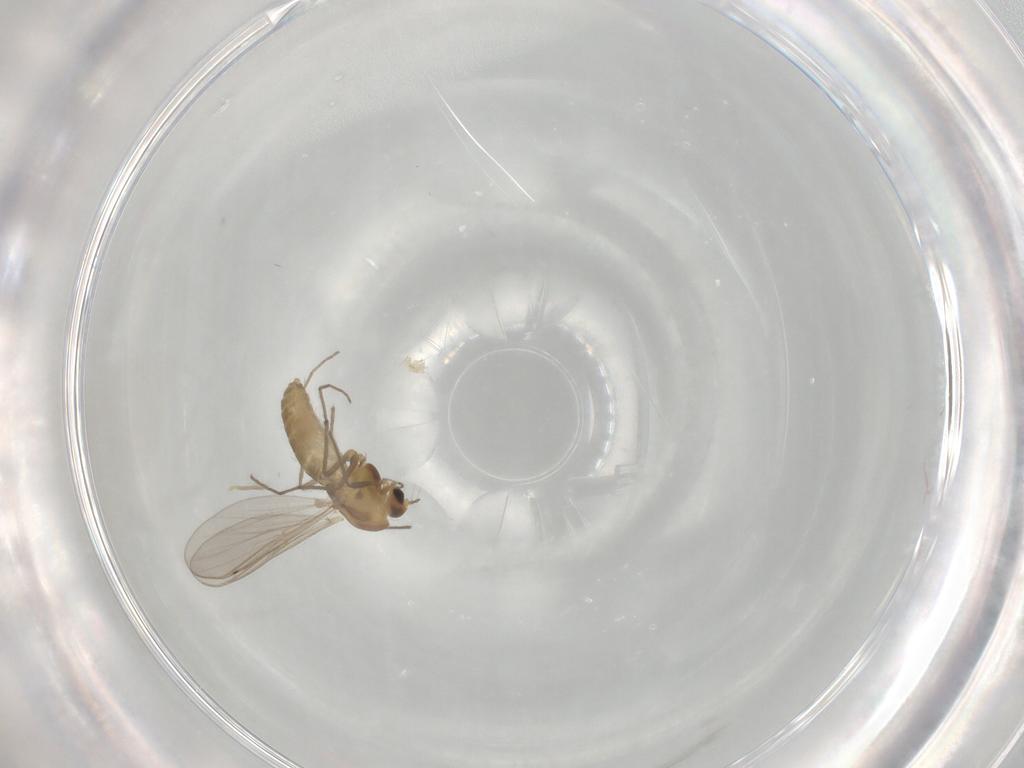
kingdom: Animalia
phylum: Arthropoda
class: Insecta
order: Diptera
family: Chironomidae
